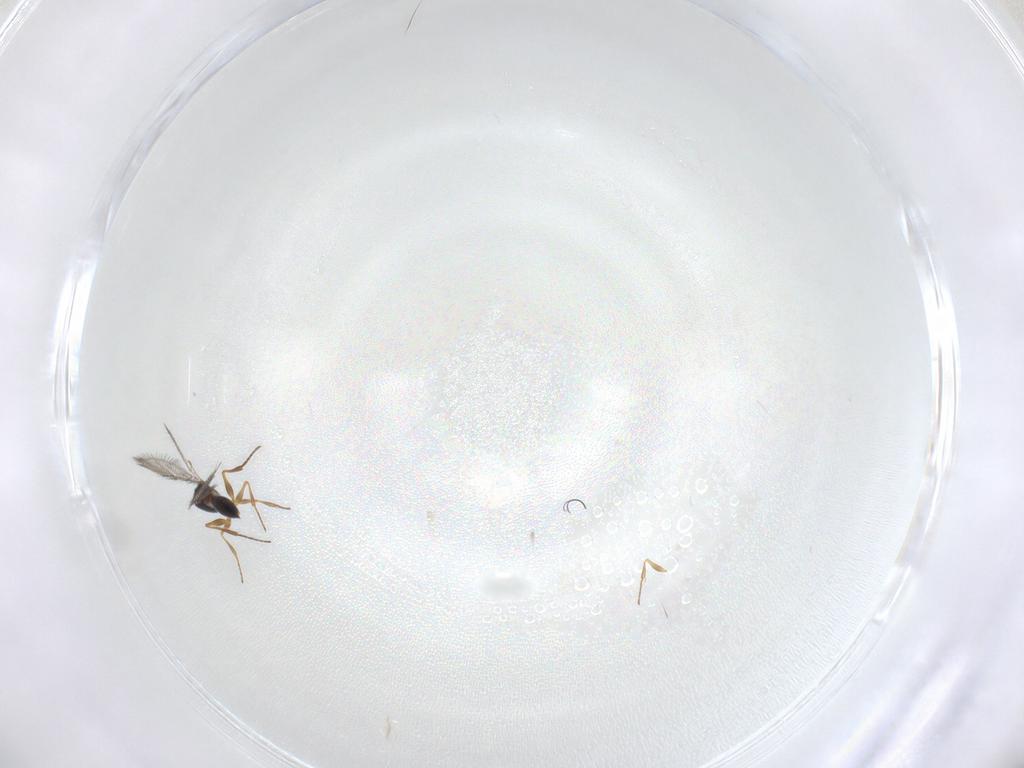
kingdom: Animalia
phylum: Arthropoda
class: Insecta
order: Hymenoptera
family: Figitidae
